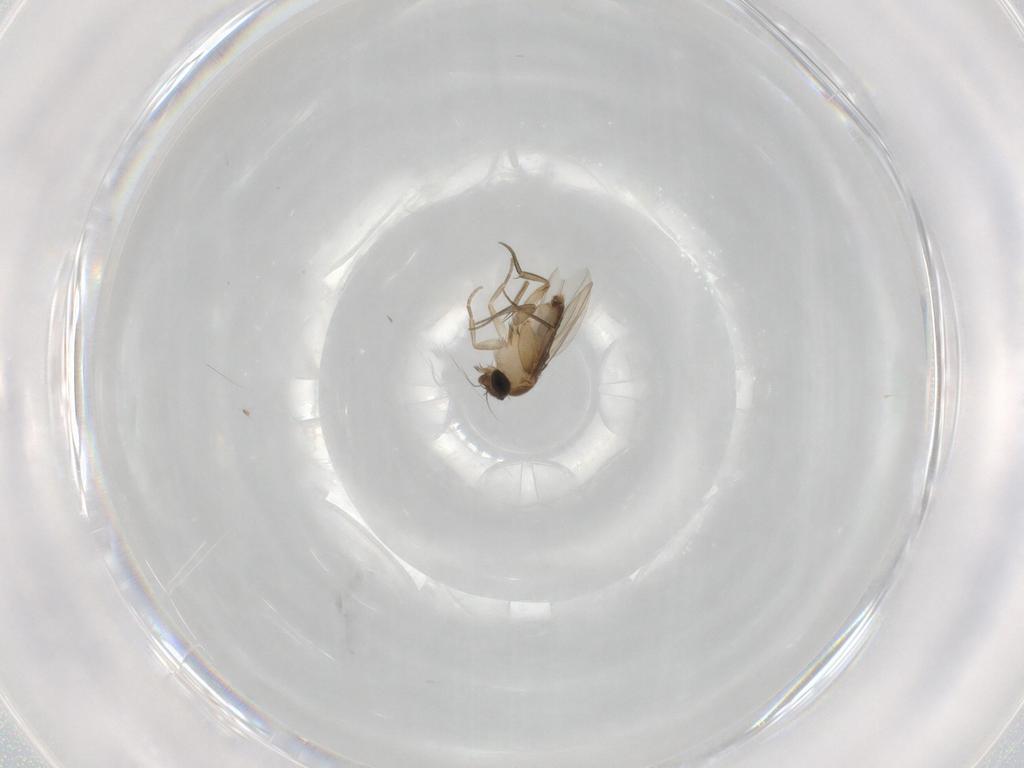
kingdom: Animalia
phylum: Arthropoda
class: Insecta
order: Diptera
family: Phoridae
